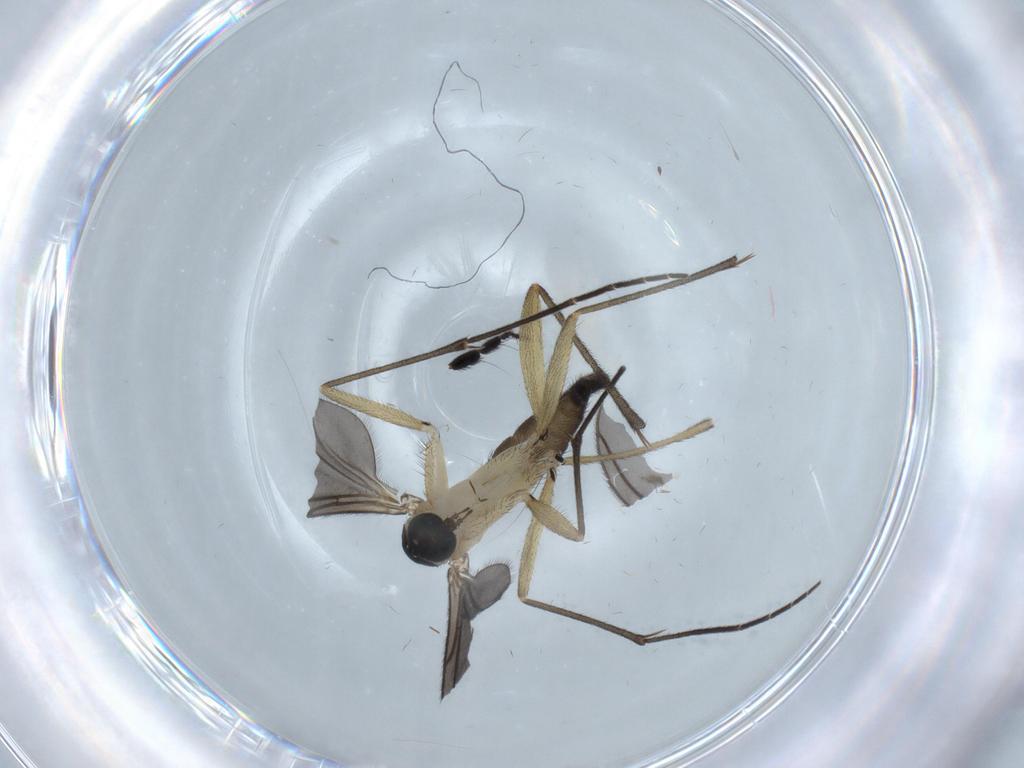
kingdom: Animalia
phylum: Arthropoda
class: Insecta
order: Diptera
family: Sciaridae
